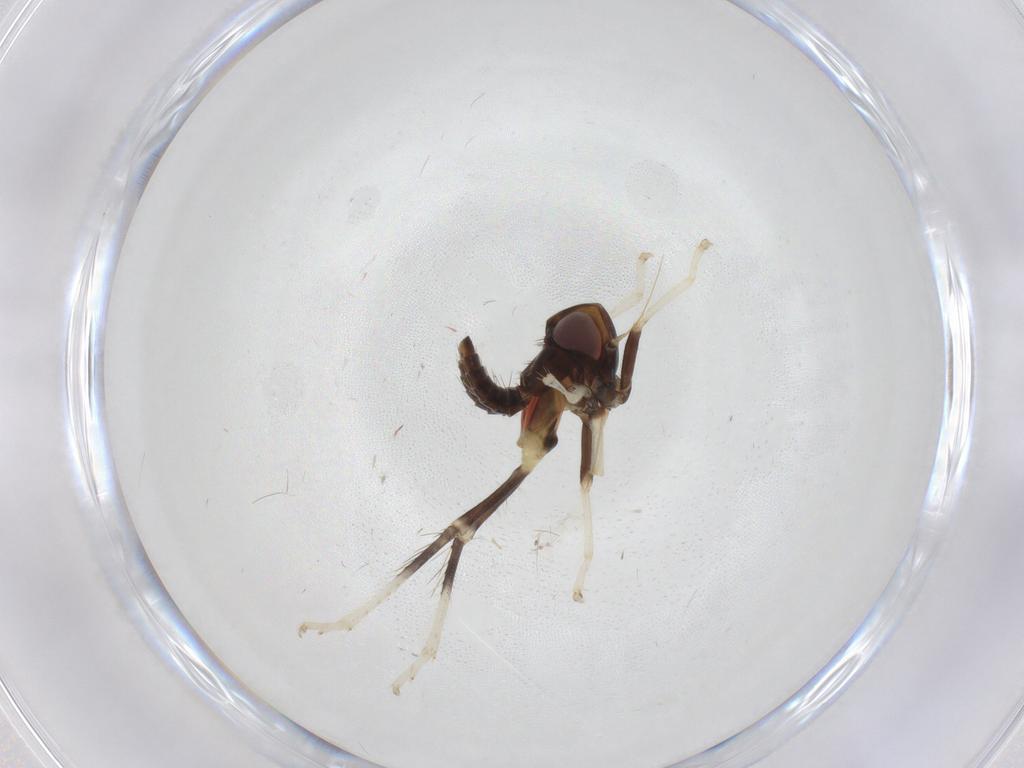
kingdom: Animalia
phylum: Arthropoda
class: Insecta
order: Hemiptera
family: Cicadellidae
